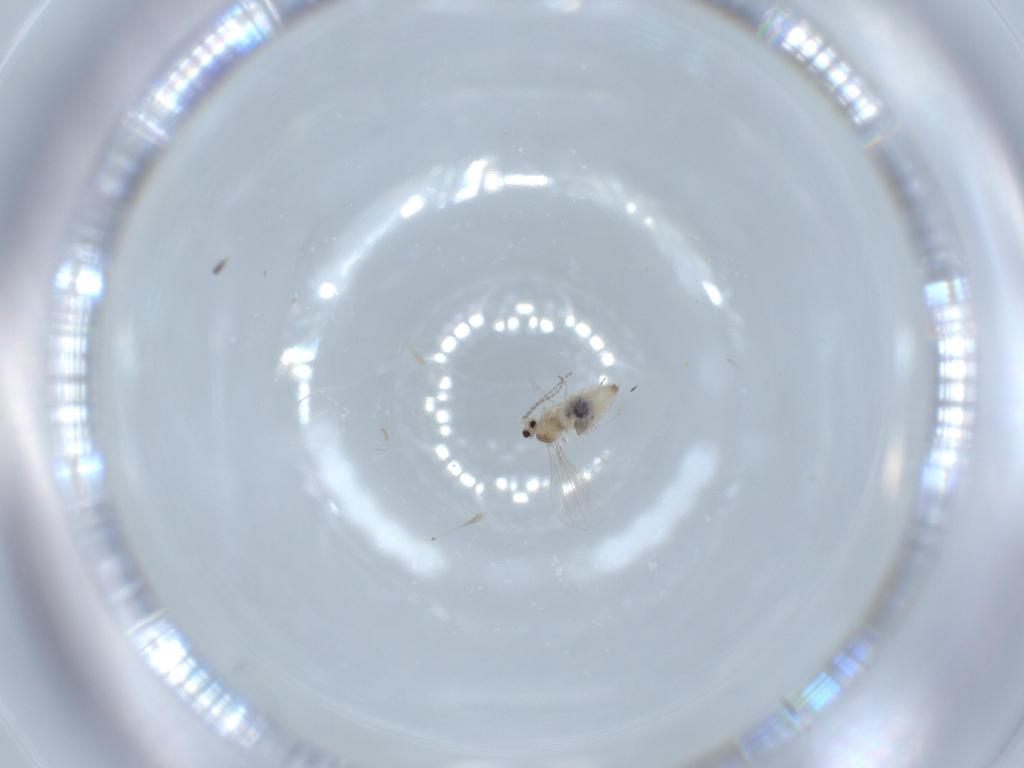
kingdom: Animalia
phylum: Arthropoda
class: Insecta
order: Diptera
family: Cecidomyiidae
